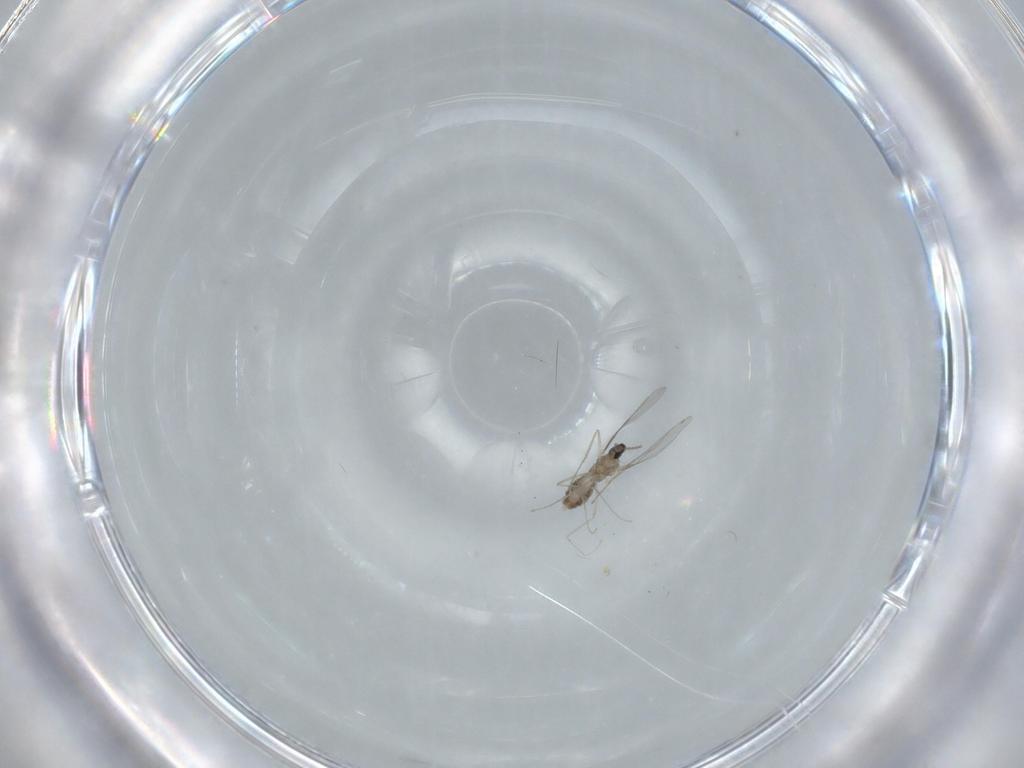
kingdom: Animalia
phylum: Arthropoda
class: Insecta
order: Diptera
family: Cecidomyiidae
